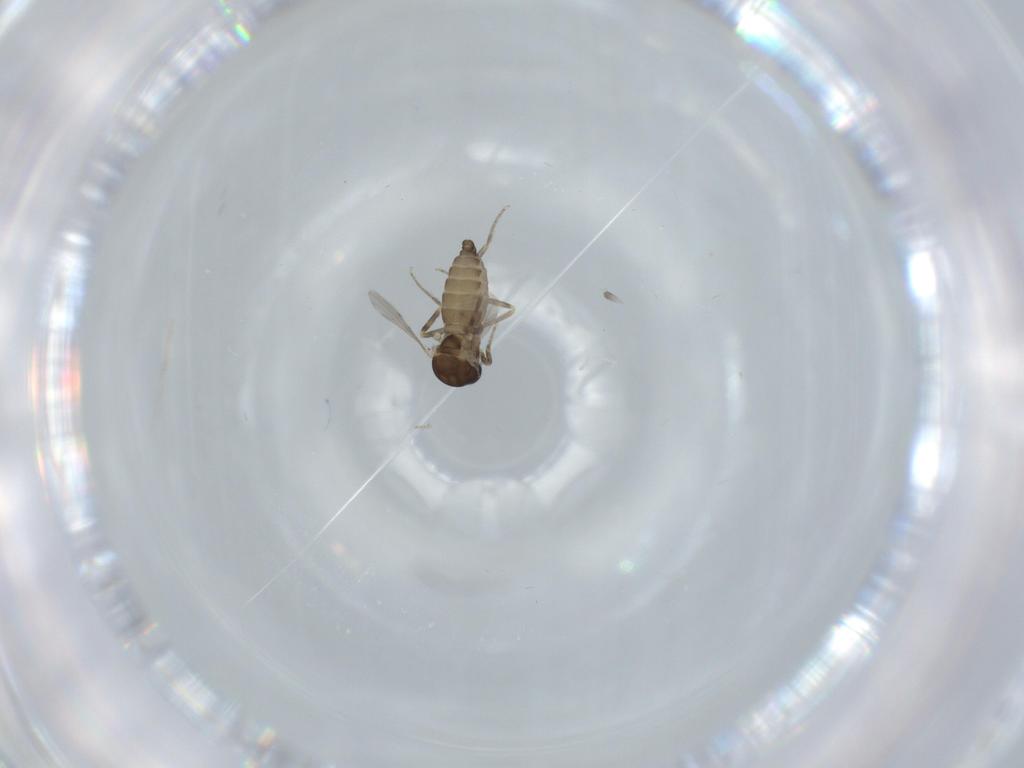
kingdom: Animalia
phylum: Arthropoda
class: Insecta
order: Diptera
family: Ceratopogonidae
